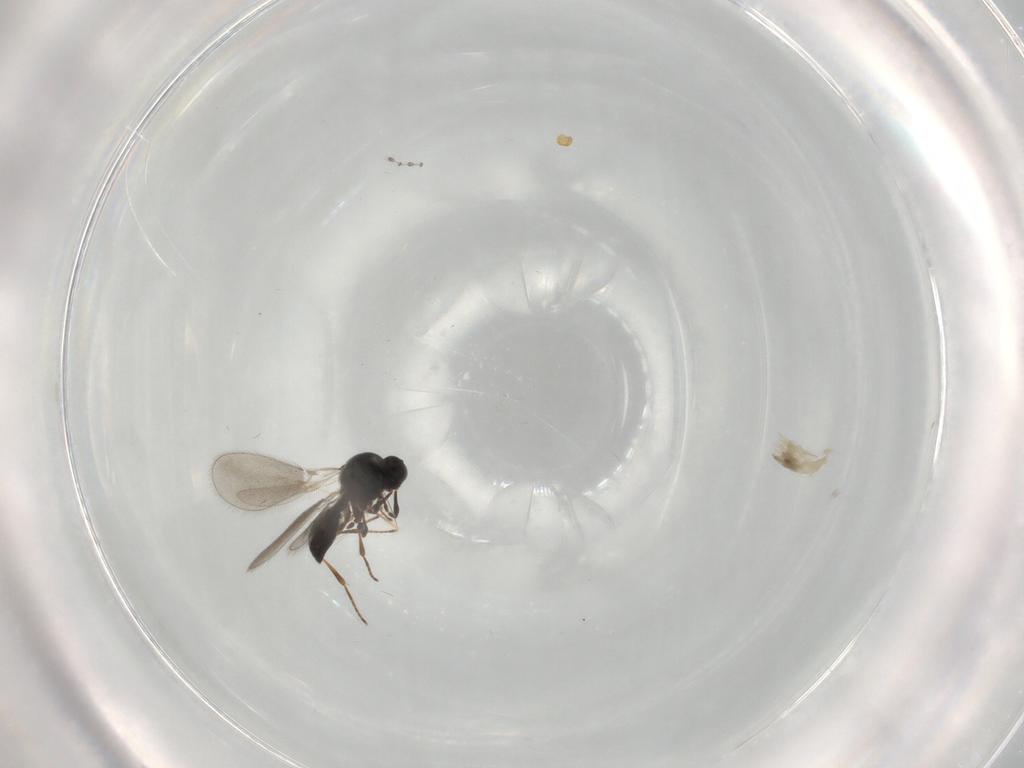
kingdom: Animalia
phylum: Arthropoda
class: Insecta
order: Hymenoptera
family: Platygastridae
